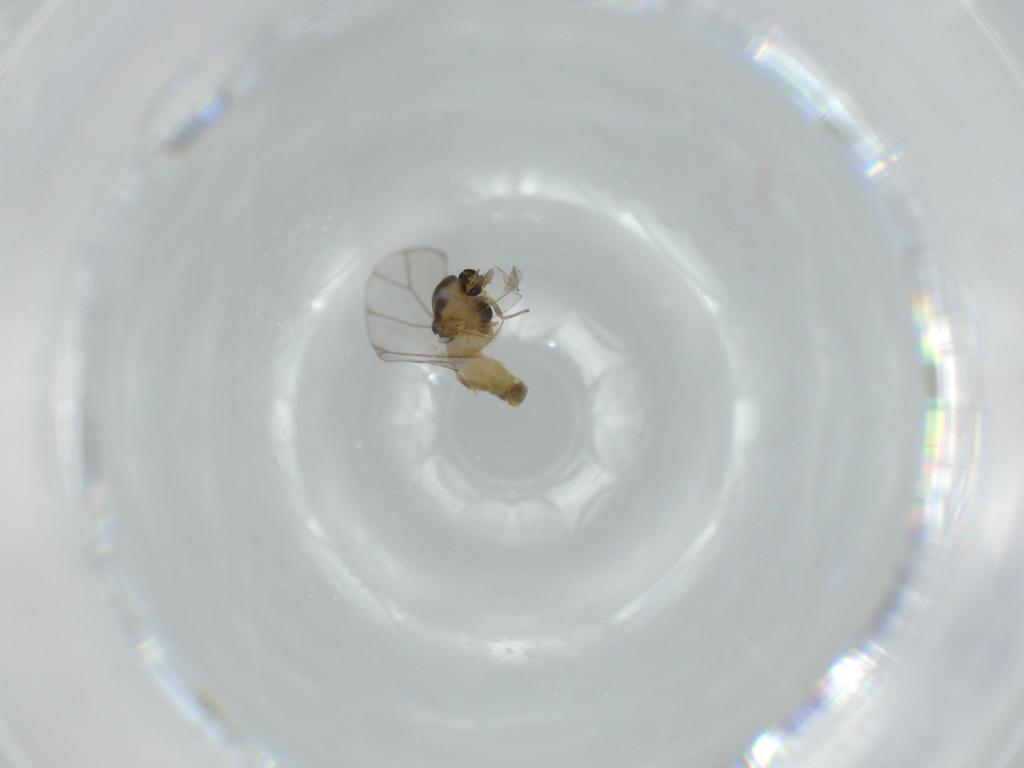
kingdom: Animalia
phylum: Arthropoda
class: Insecta
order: Diptera
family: Chironomidae
